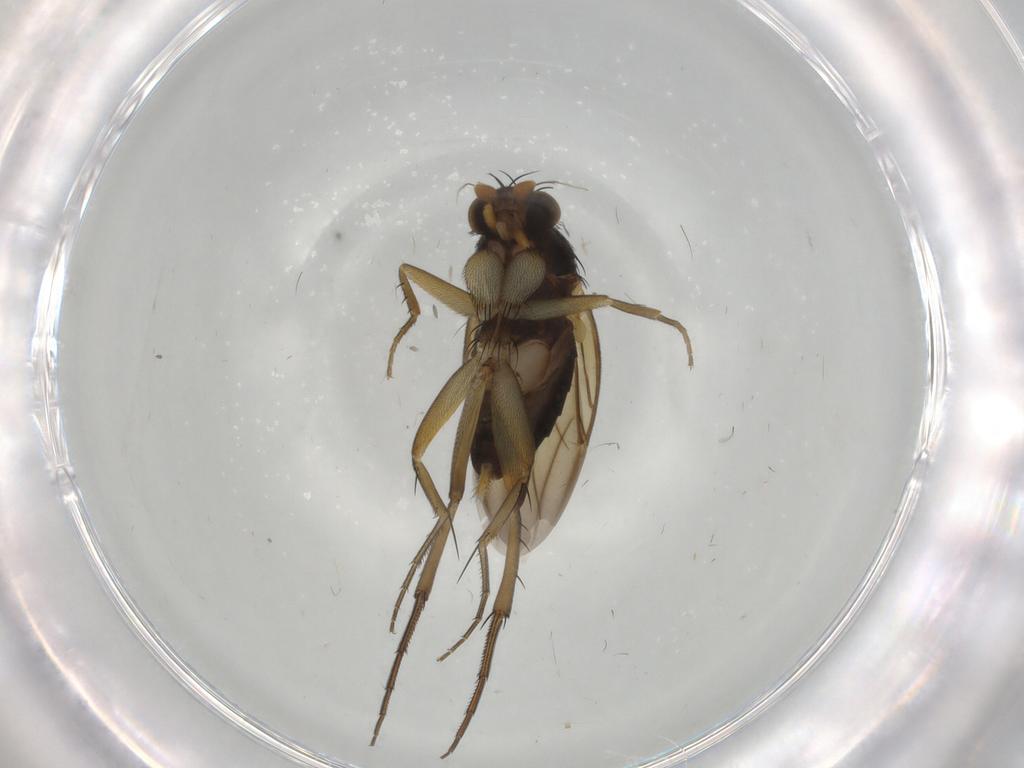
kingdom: Animalia
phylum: Arthropoda
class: Insecta
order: Diptera
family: Phoridae
